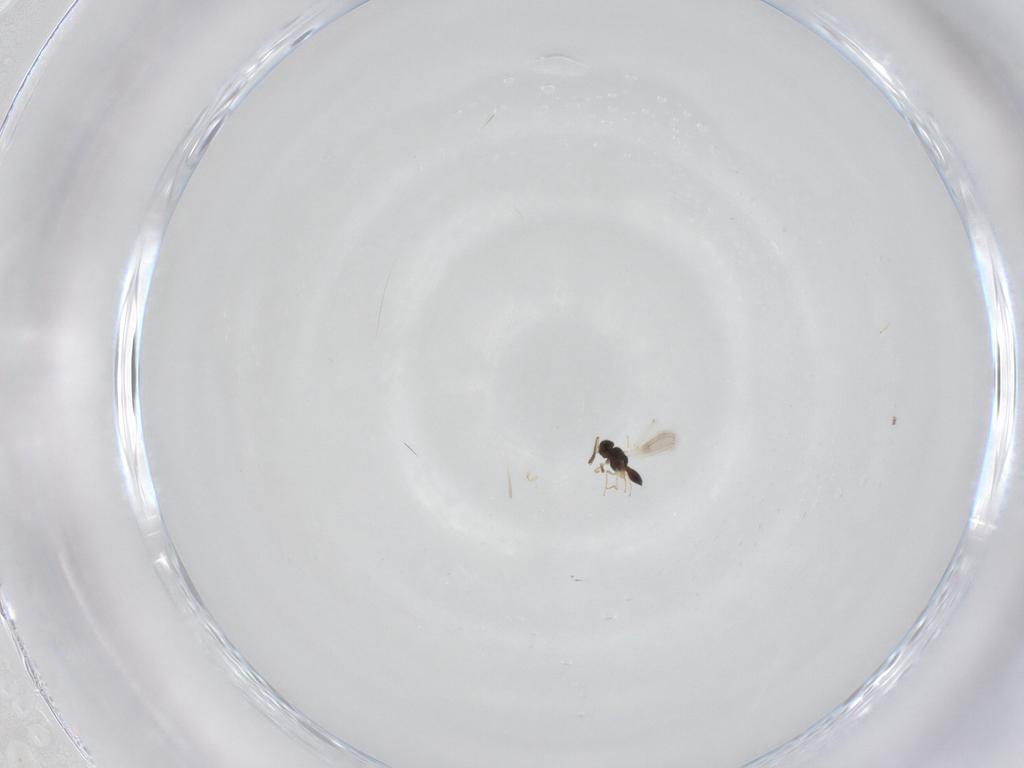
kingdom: Animalia
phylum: Arthropoda
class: Insecta
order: Hymenoptera
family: Scelionidae
